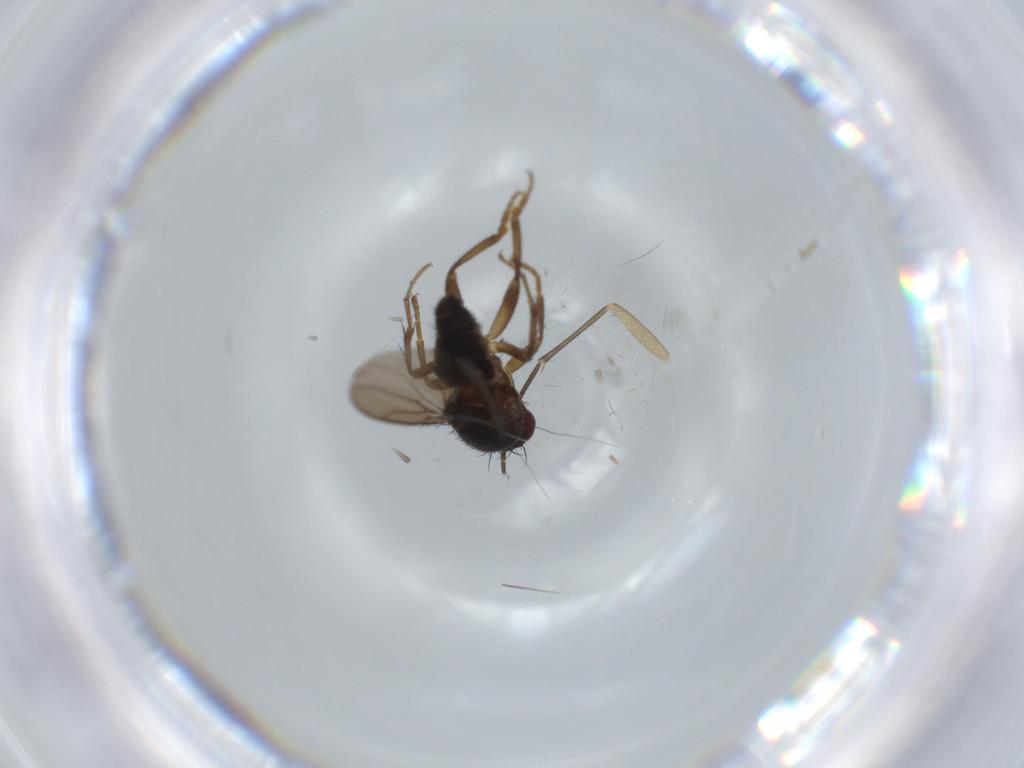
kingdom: Animalia
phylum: Arthropoda
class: Insecta
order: Diptera
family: Sciaridae
